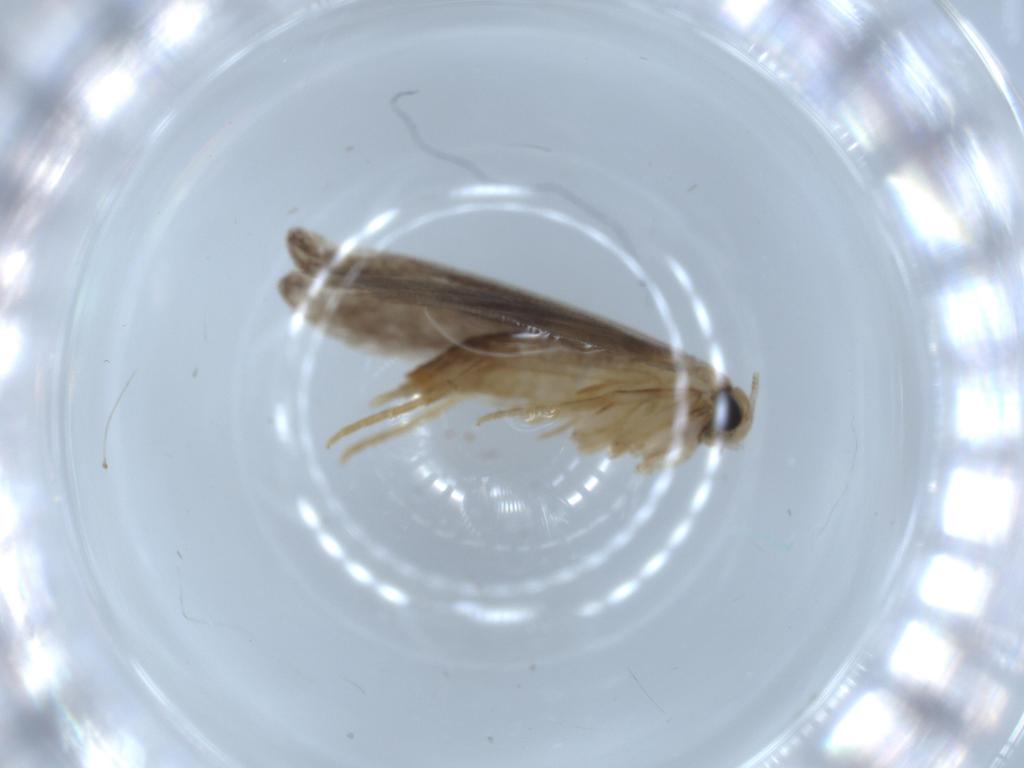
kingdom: Animalia
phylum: Arthropoda
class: Insecta
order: Lepidoptera
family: Tineidae
